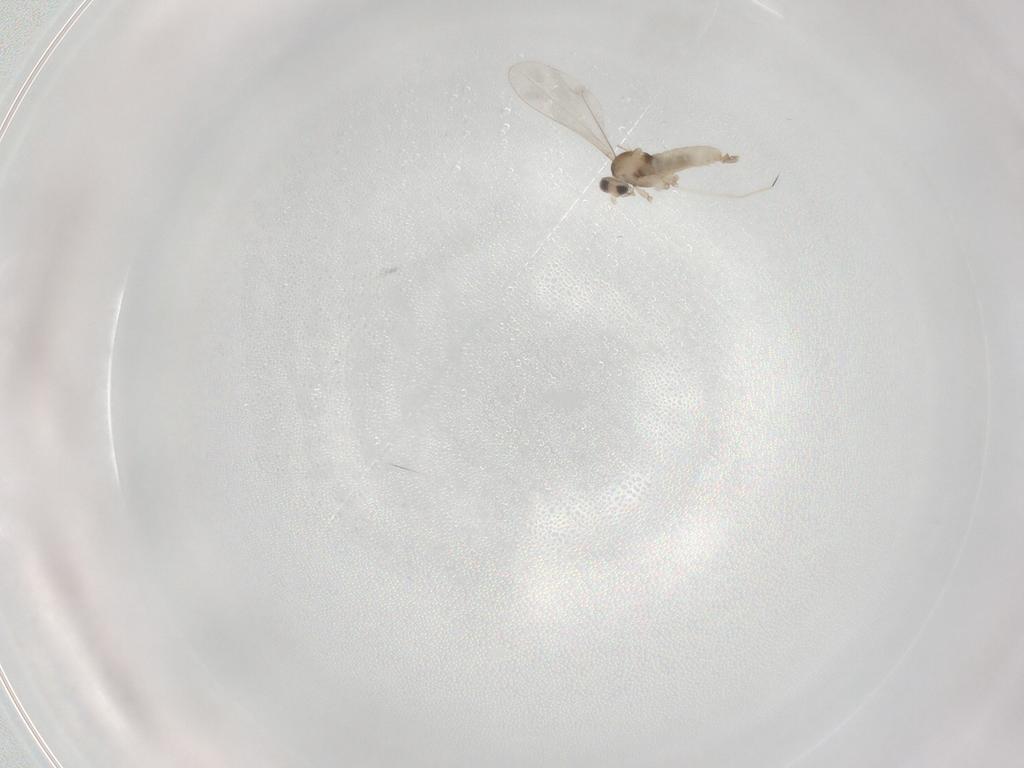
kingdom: Animalia
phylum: Arthropoda
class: Insecta
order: Diptera
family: Cecidomyiidae
